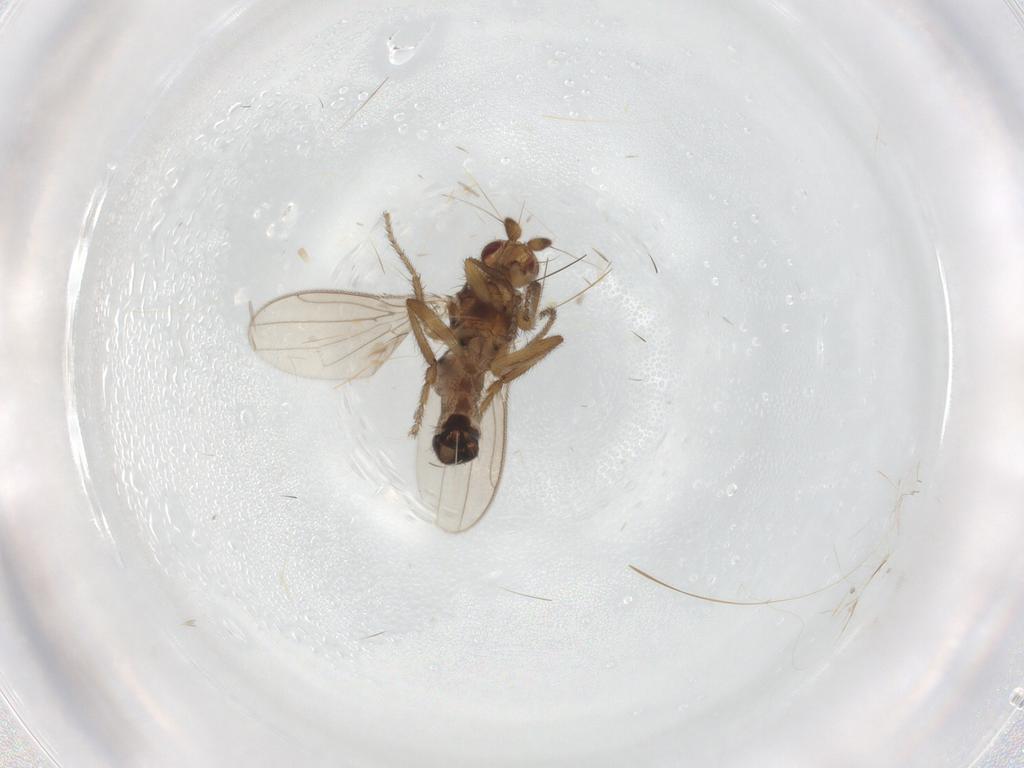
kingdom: Animalia
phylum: Arthropoda
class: Insecta
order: Diptera
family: Sphaeroceridae
